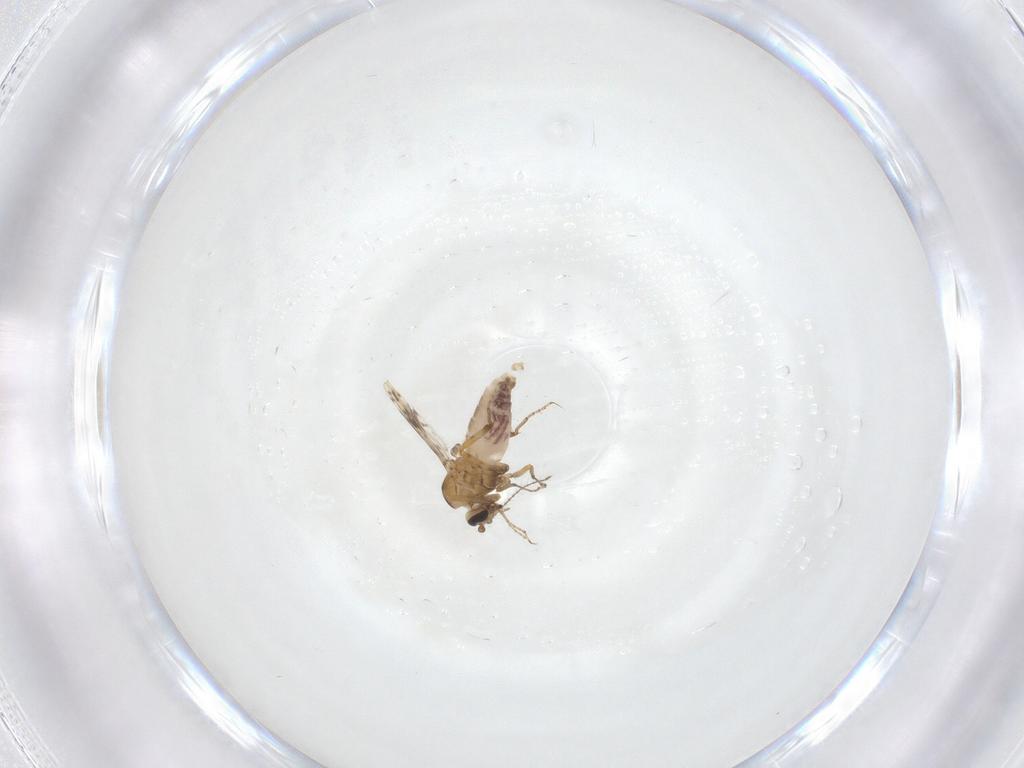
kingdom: Animalia
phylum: Arthropoda
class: Insecta
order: Diptera
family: Ceratopogonidae
